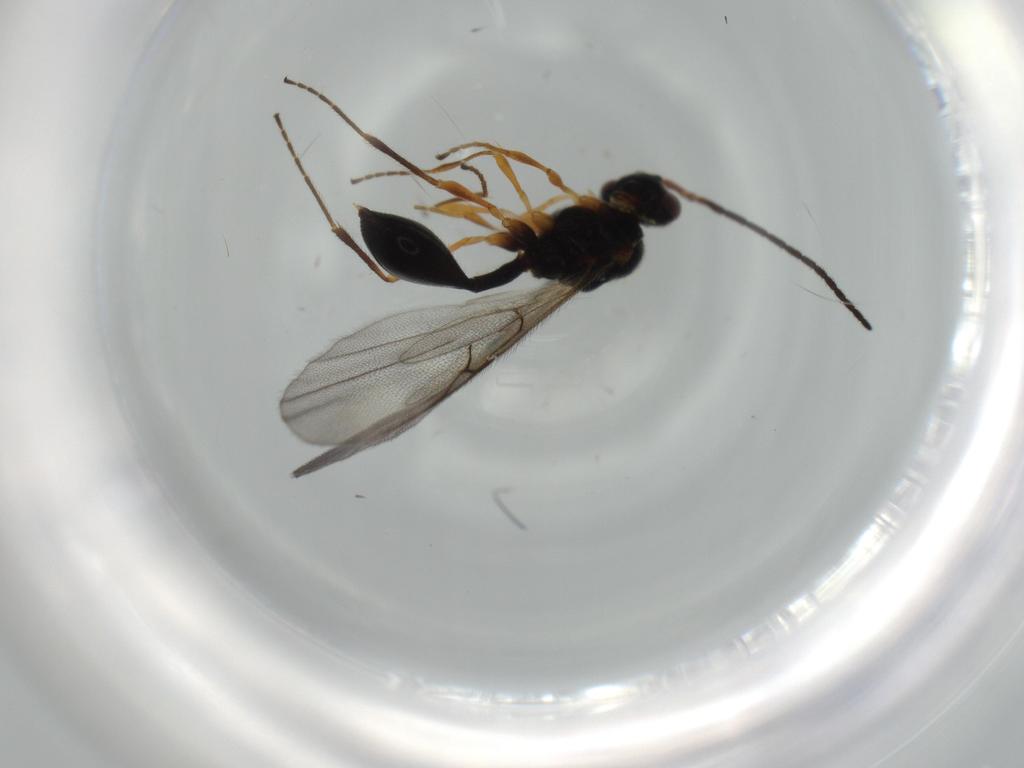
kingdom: Animalia
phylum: Arthropoda
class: Insecta
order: Hymenoptera
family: Diapriidae
